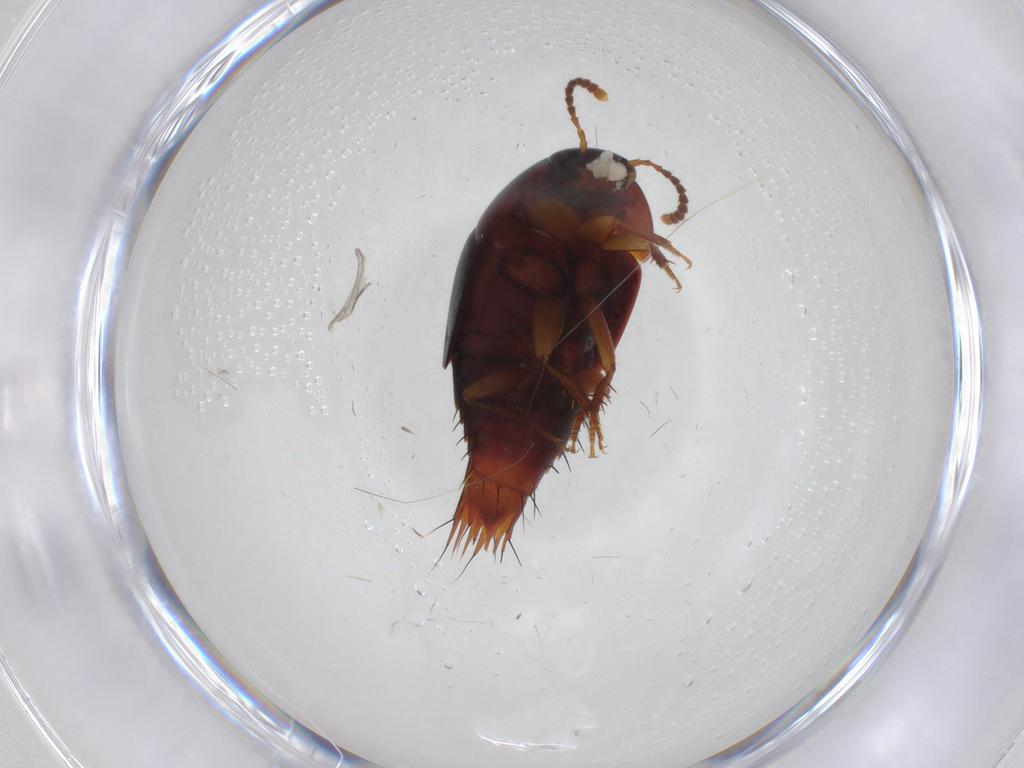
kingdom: Animalia
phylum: Arthropoda
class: Insecta
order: Coleoptera
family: Staphylinidae
